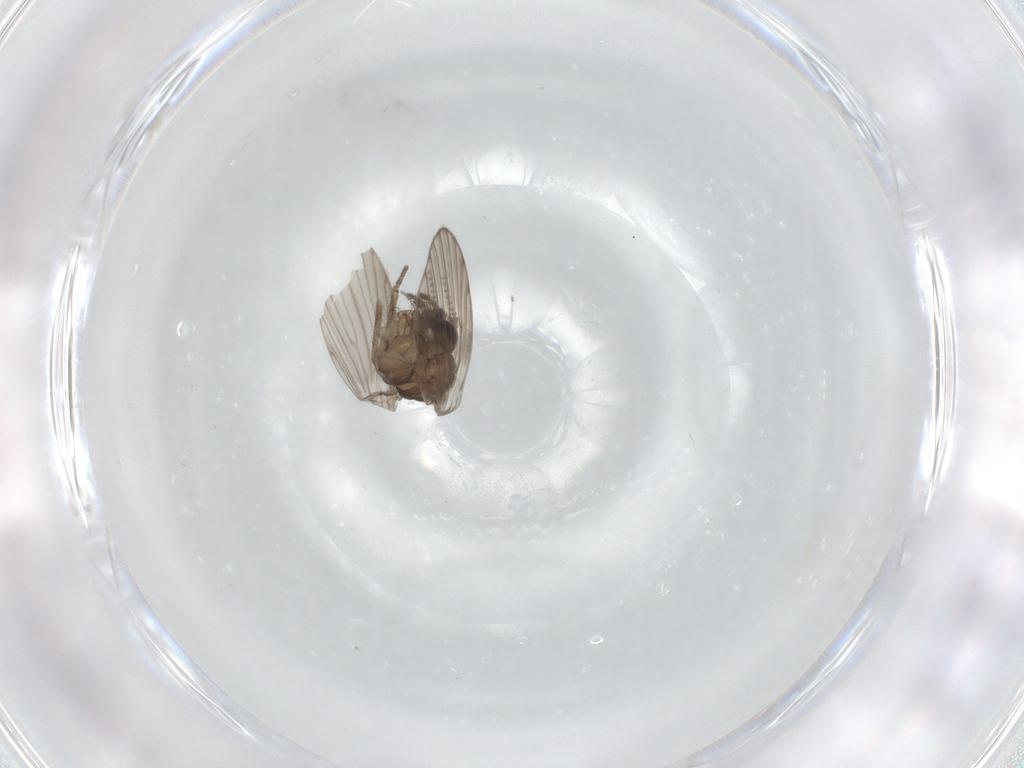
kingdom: Animalia
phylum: Arthropoda
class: Insecta
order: Diptera
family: Psychodidae
